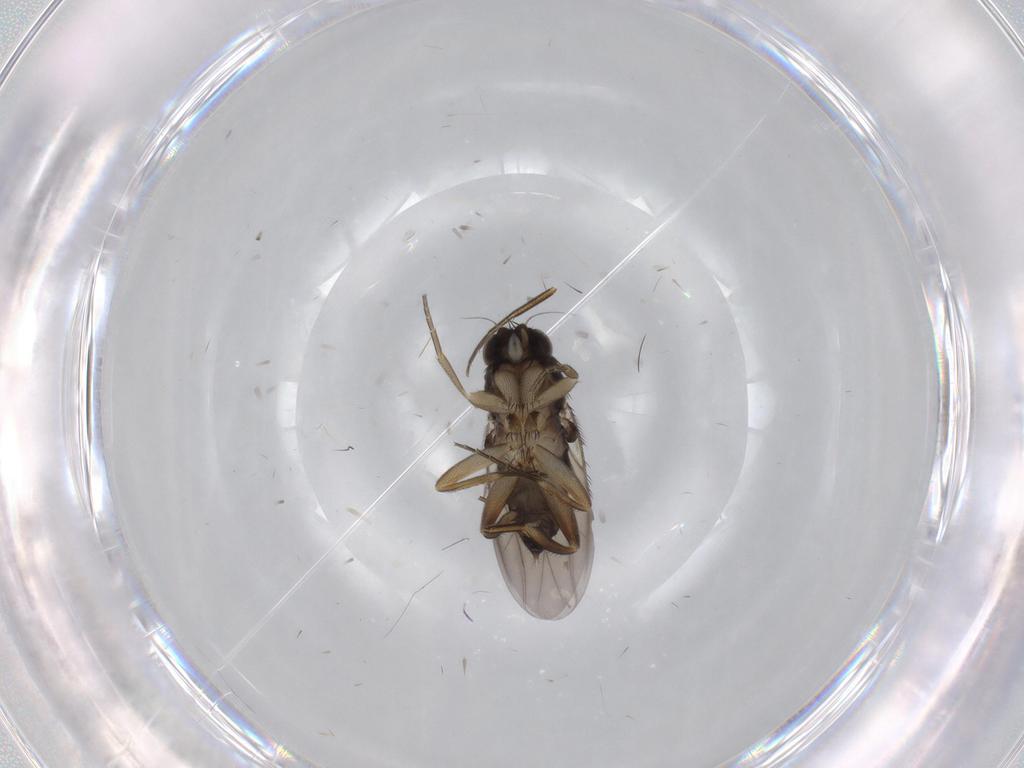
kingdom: Animalia
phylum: Arthropoda
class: Insecta
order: Diptera
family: Phoridae
